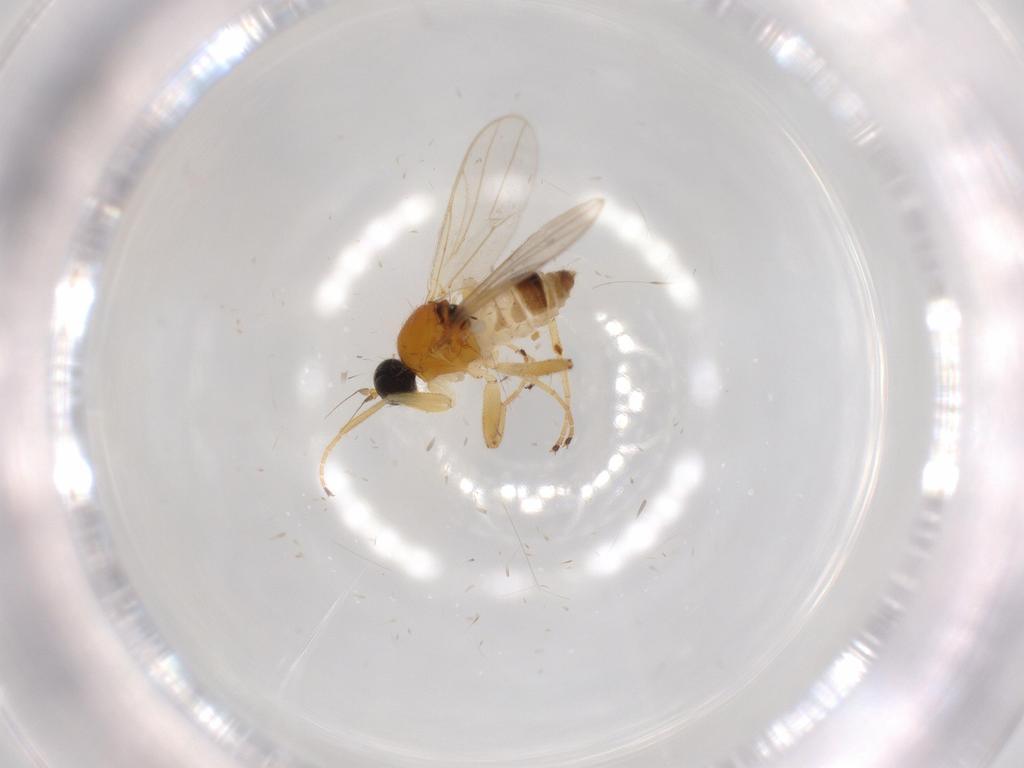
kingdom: Animalia
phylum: Arthropoda
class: Insecta
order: Diptera
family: Hybotidae
